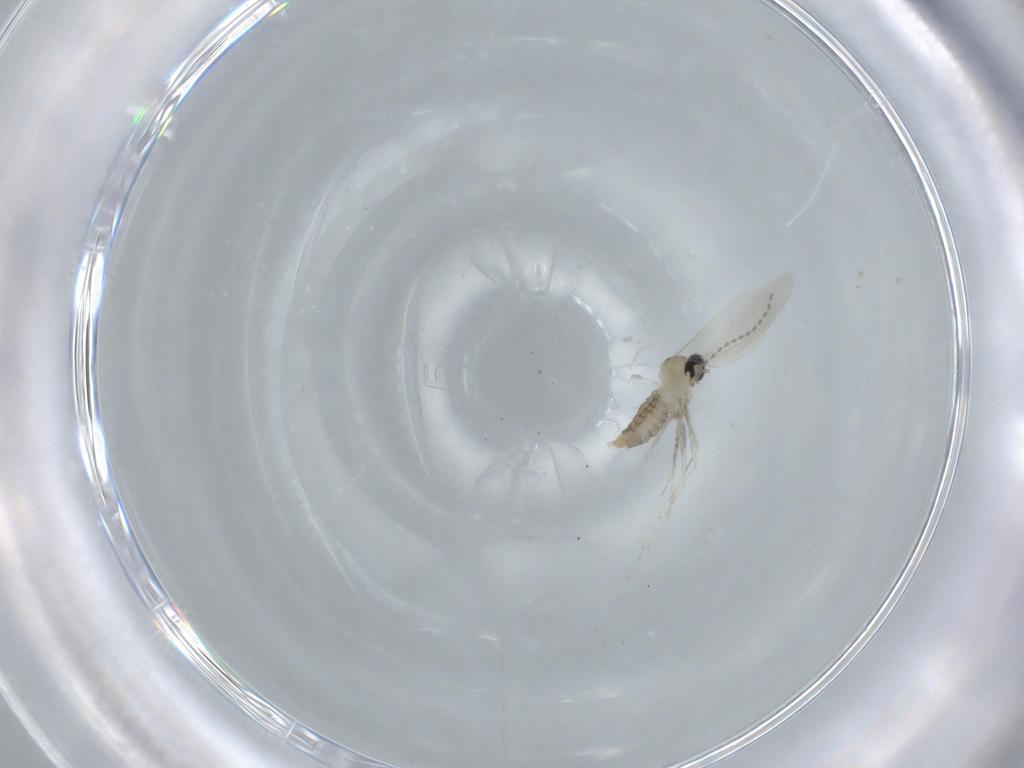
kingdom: Animalia
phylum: Arthropoda
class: Insecta
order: Diptera
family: Cecidomyiidae
